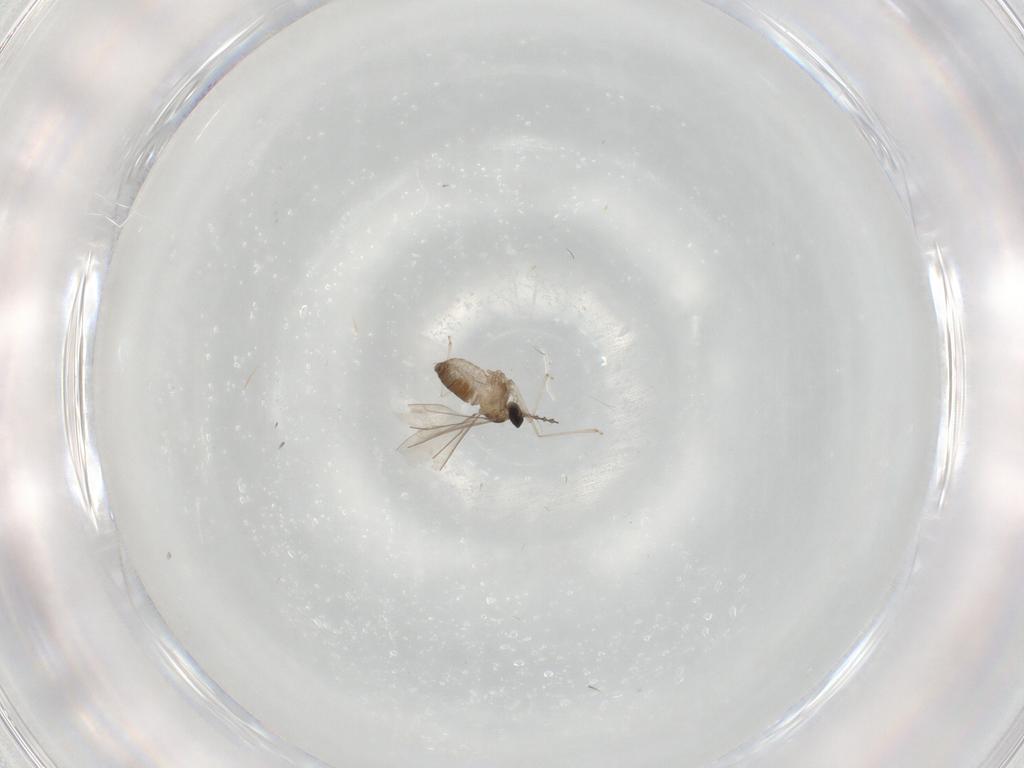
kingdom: Animalia
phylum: Arthropoda
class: Insecta
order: Diptera
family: Cecidomyiidae
